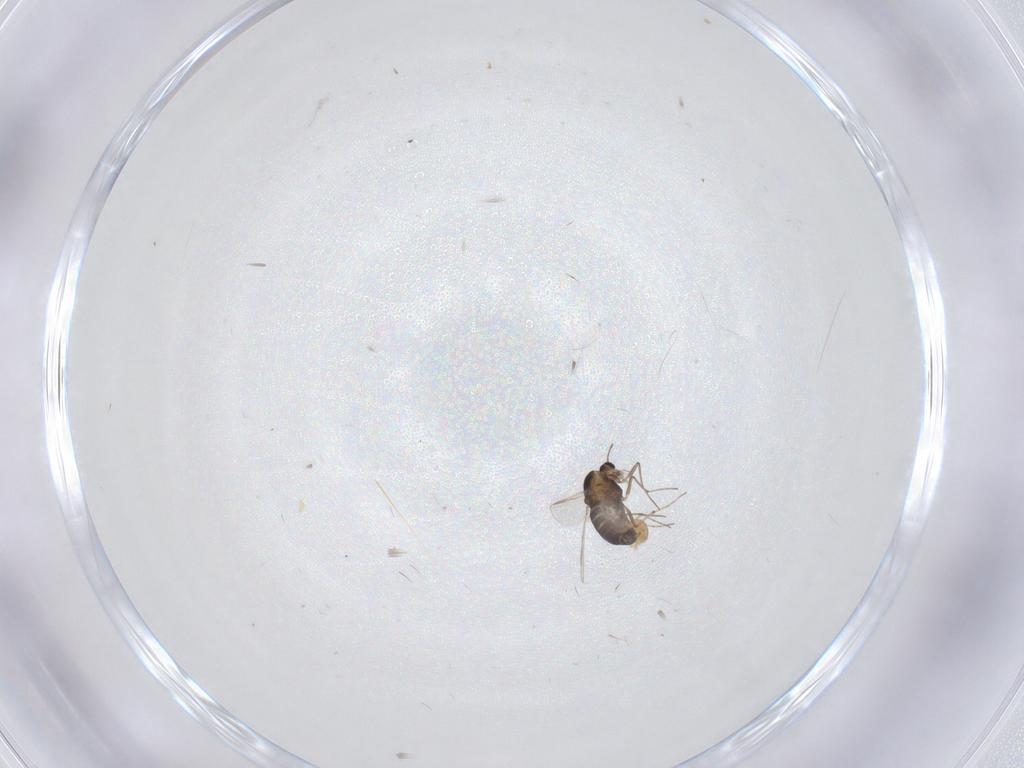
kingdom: Animalia
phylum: Arthropoda
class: Insecta
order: Diptera
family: Chironomidae
